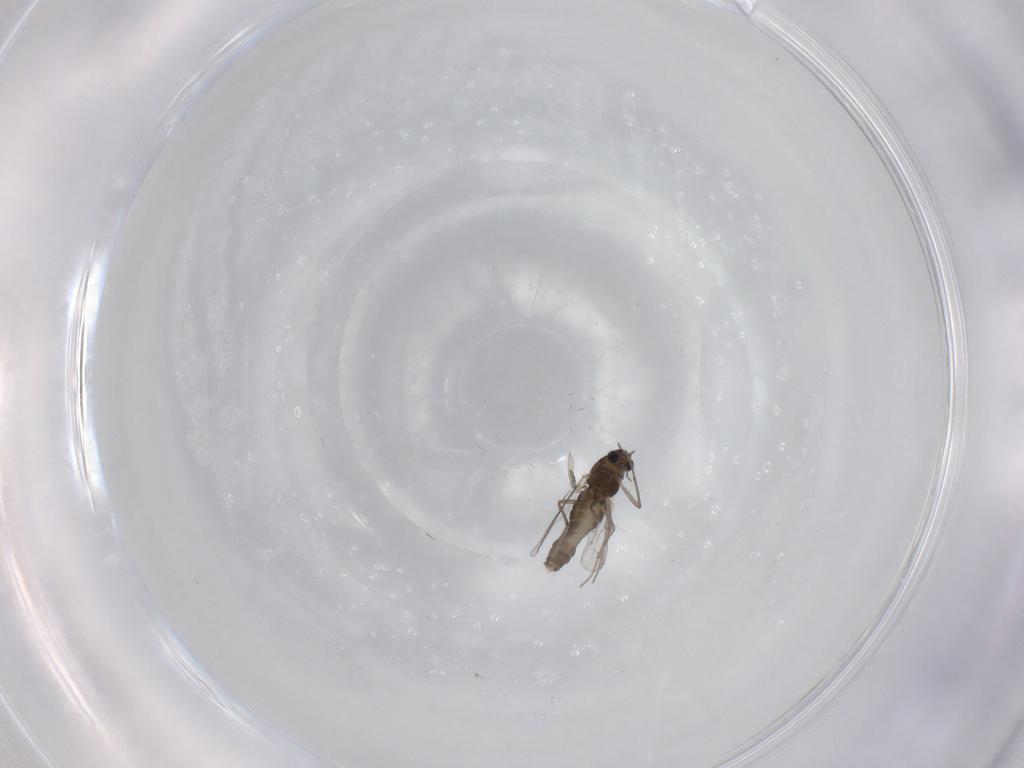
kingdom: Animalia
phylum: Arthropoda
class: Insecta
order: Diptera
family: Chironomidae
